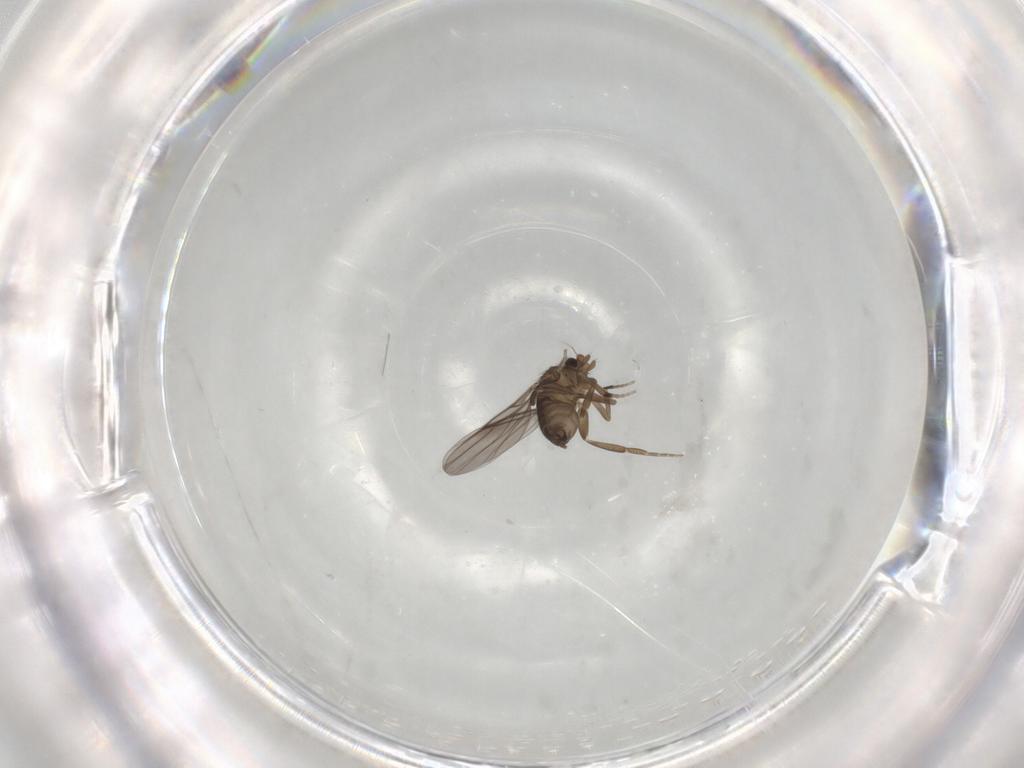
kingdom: Animalia
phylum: Arthropoda
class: Insecta
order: Diptera
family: Phoridae
